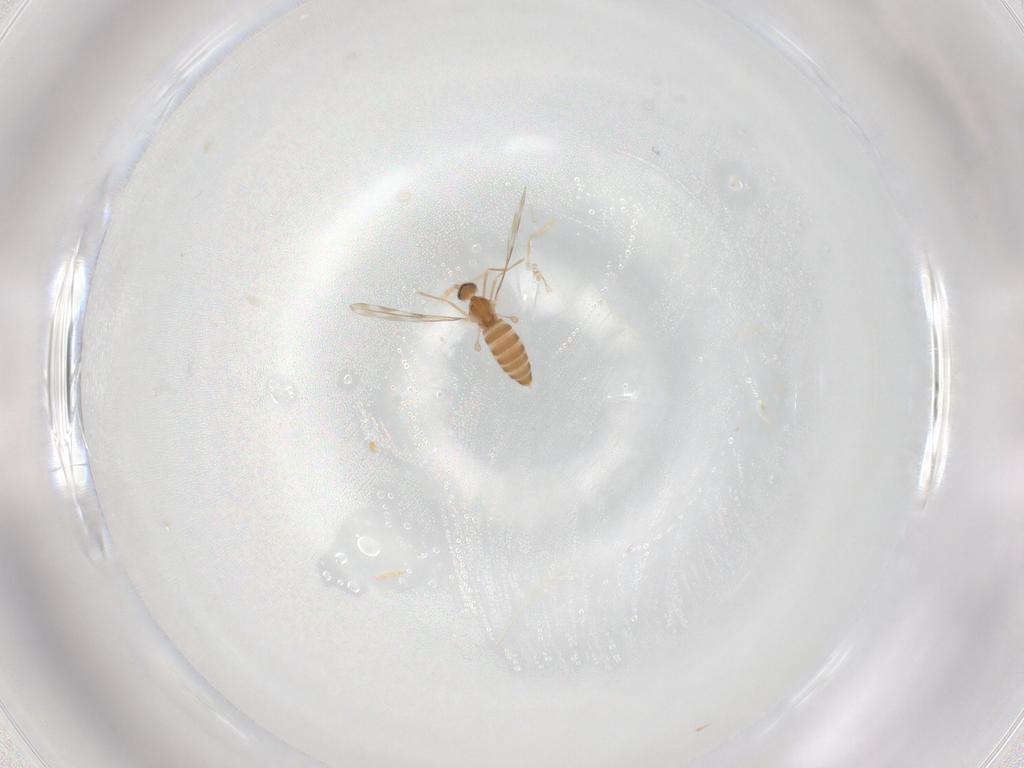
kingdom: Animalia
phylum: Arthropoda
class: Insecta
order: Diptera
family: Cecidomyiidae
